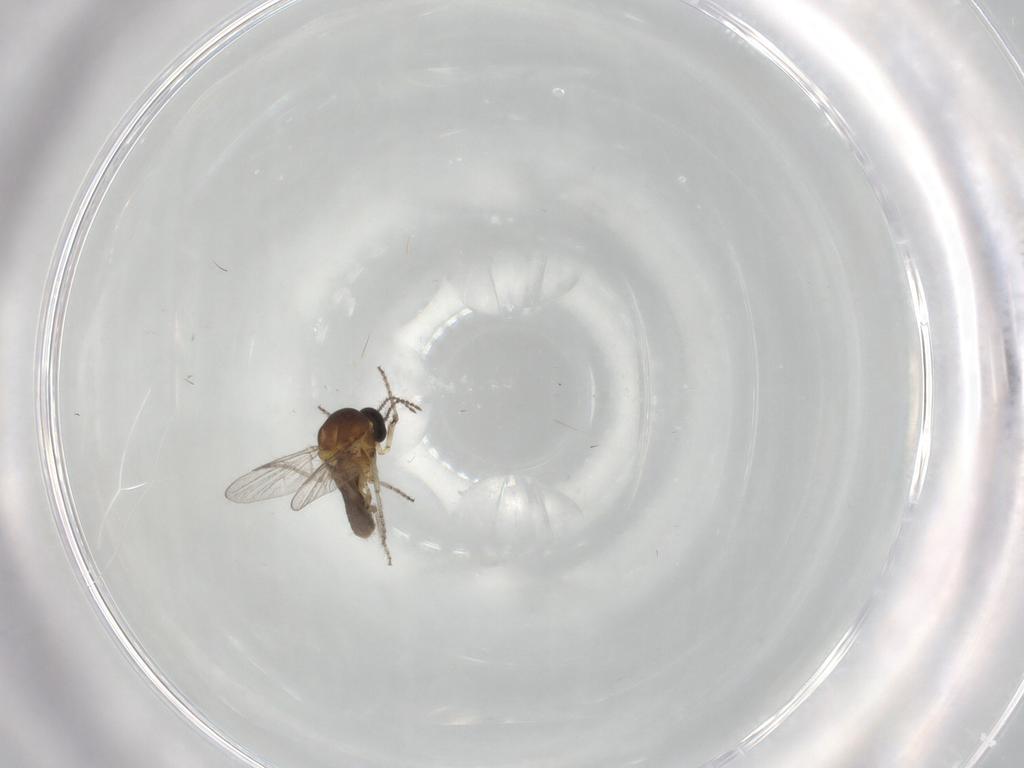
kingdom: Animalia
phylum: Arthropoda
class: Insecta
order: Diptera
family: Ceratopogonidae
